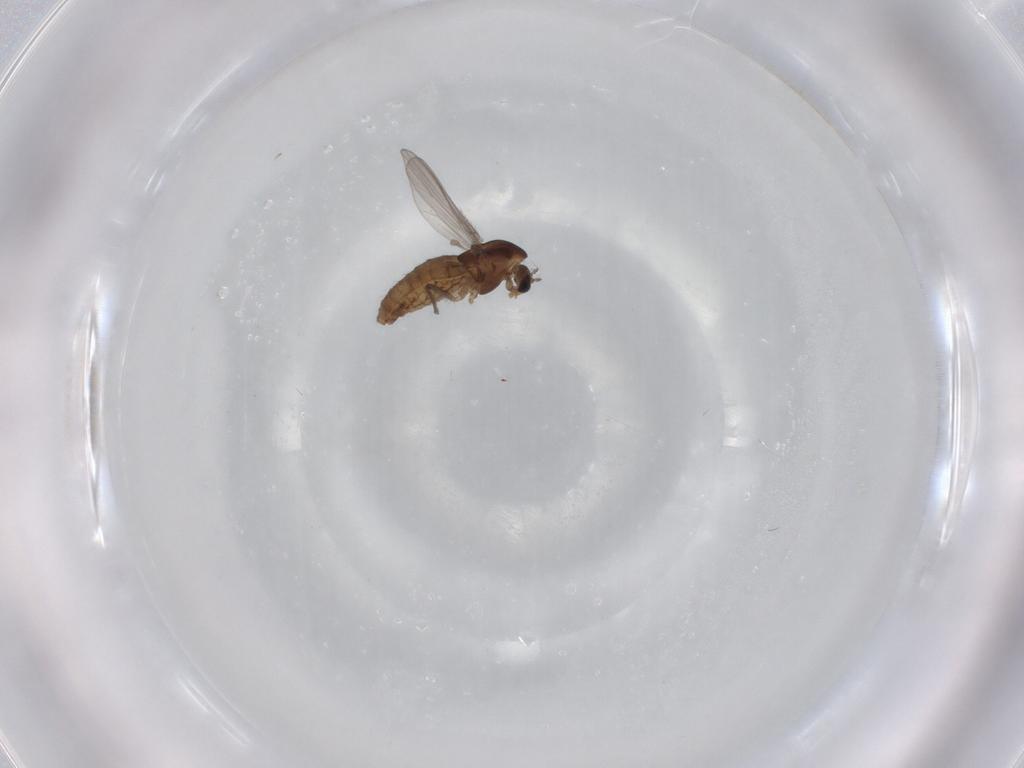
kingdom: Animalia
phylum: Arthropoda
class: Insecta
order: Diptera
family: Chironomidae
